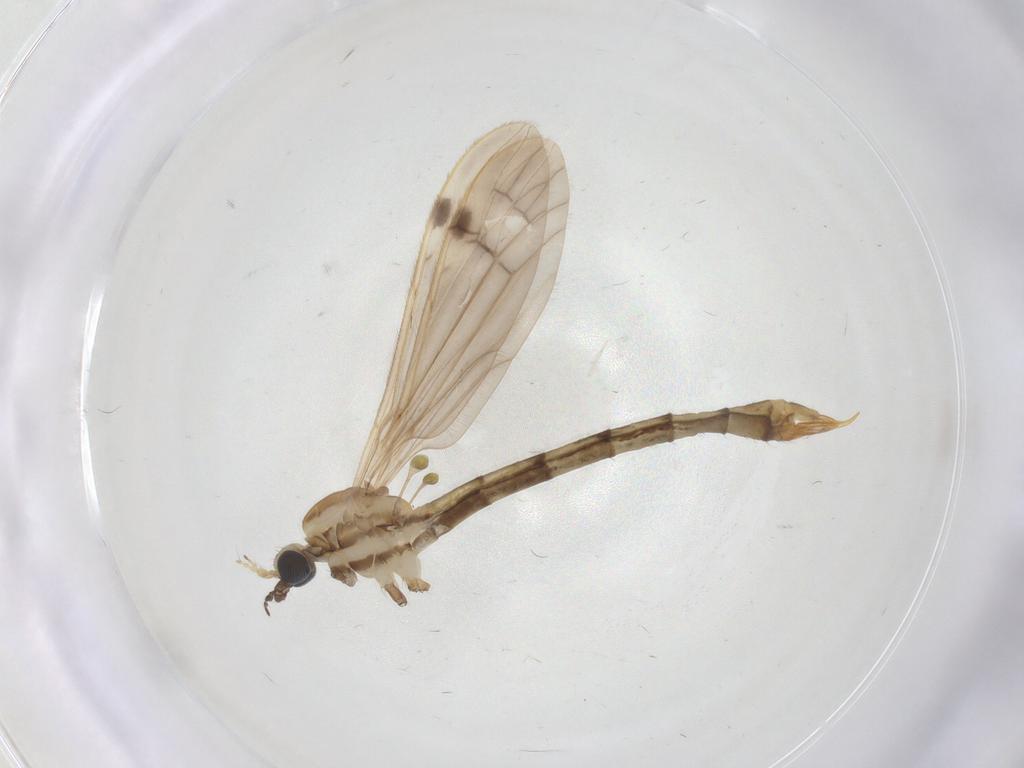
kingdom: Animalia
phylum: Arthropoda
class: Insecta
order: Diptera
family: Limoniidae
